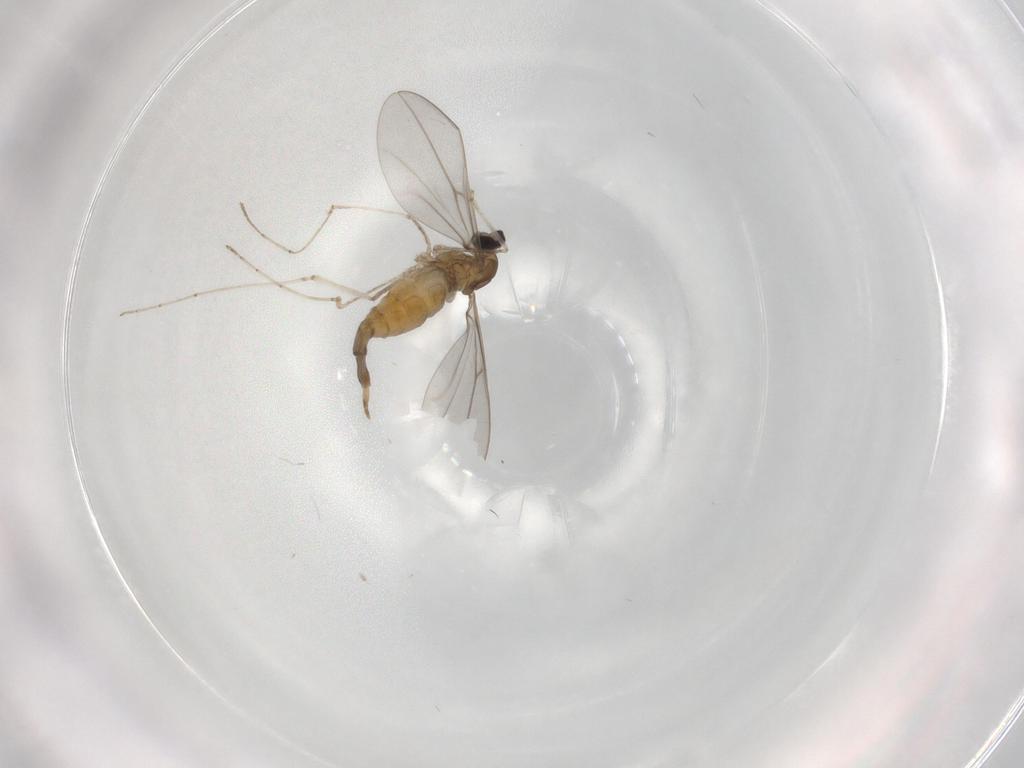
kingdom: Animalia
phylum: Arthropoda
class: Insecta
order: Diptera
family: Cecidomyiidae
